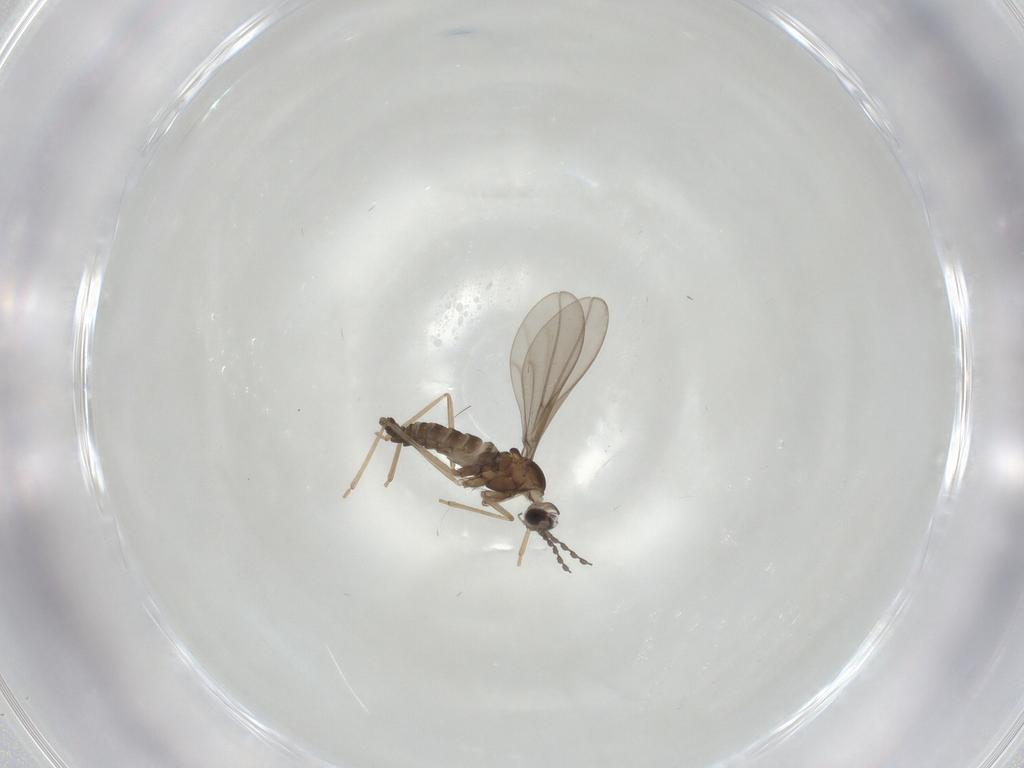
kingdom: Animalia
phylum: Arthropoda
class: Insecta
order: Diptera
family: Cecidomyiidae
